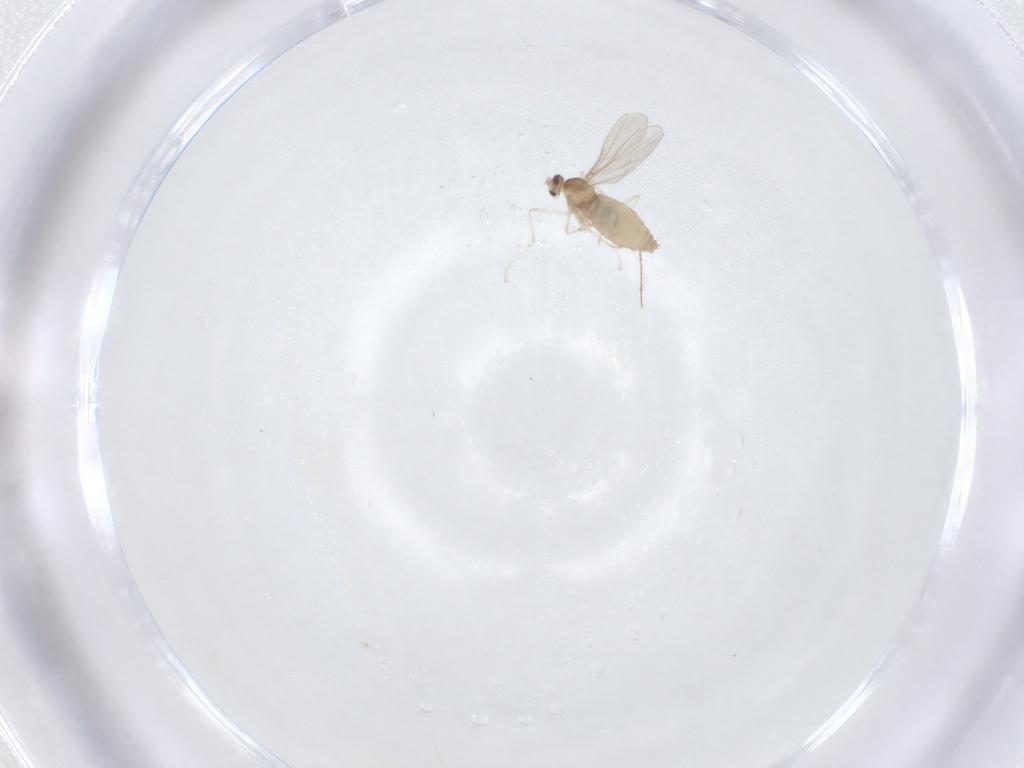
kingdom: Animalia
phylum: Arthropoda
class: Insecta
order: Diptera
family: Cecidomyiidae
